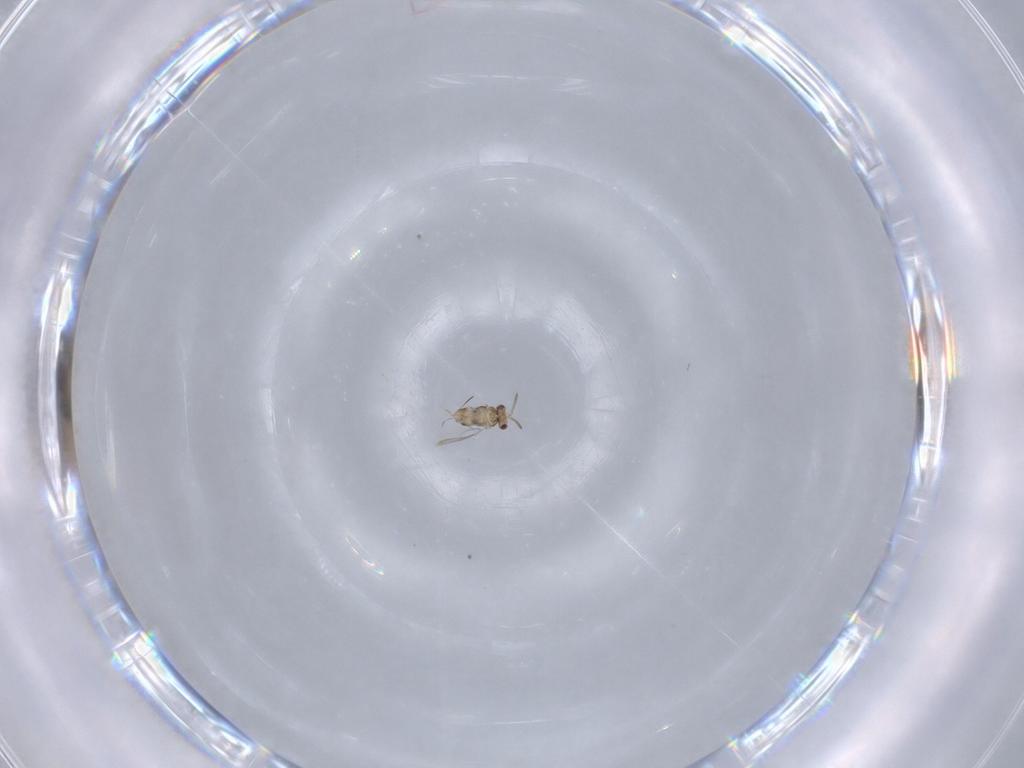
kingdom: Animalia
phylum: Arthropoda
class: Insecta
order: Hymenoptera
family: Aphelinidae
